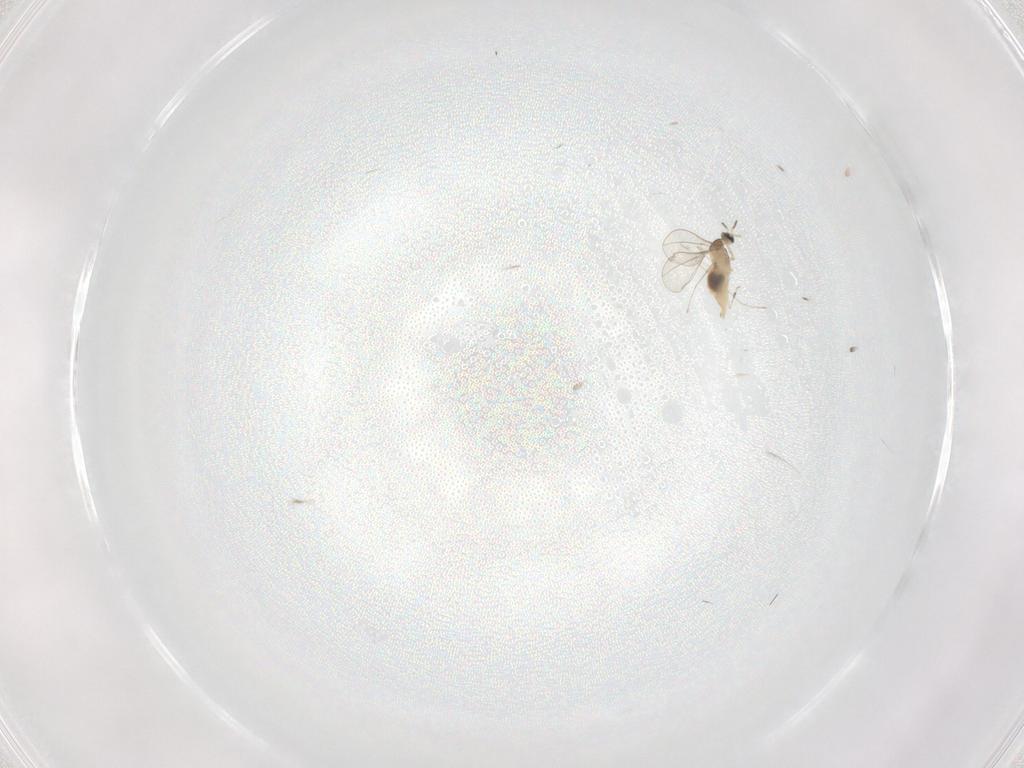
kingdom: Animalia
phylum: Arthropoda
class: Insecta
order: Diptera
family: Cecidomyiidae
